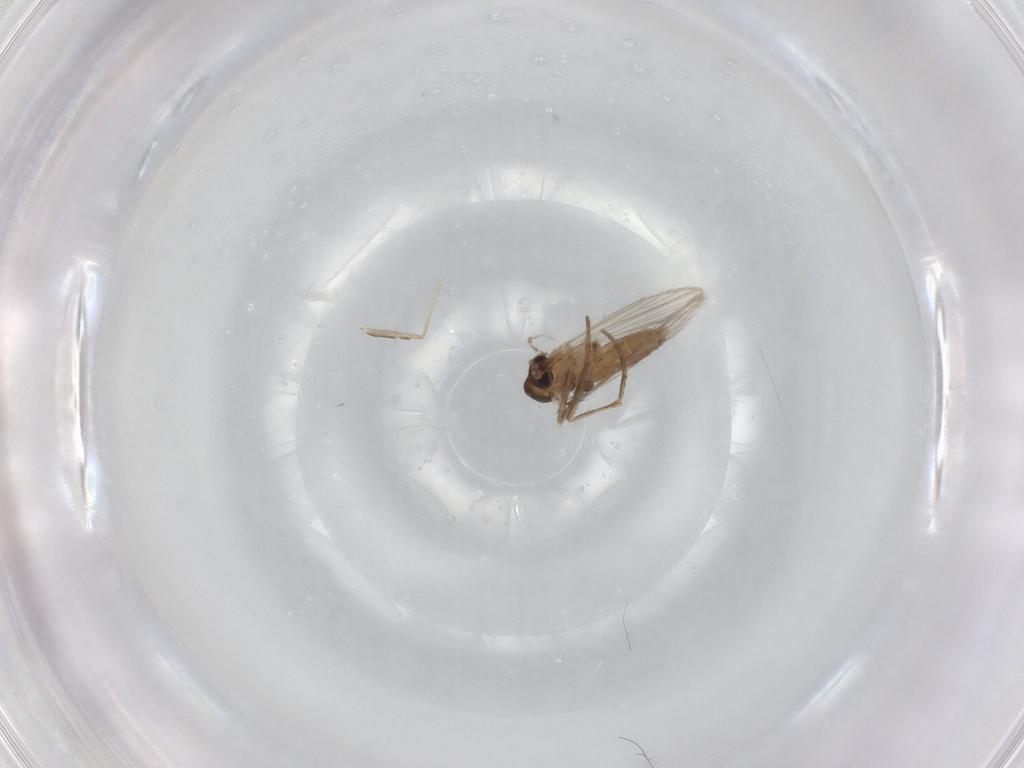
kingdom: Animalia
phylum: Arthropoda
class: Insecta
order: Diptera
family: Psychodidae
